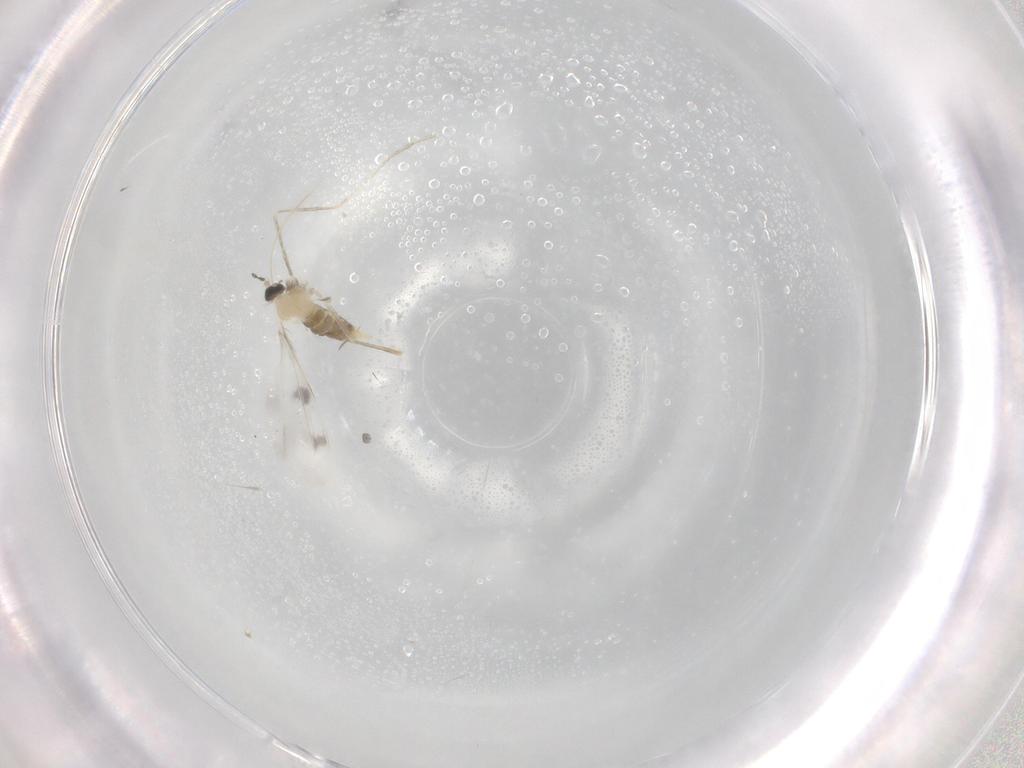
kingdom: Animalia
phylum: Arthropoda
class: Insecta
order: Diptera
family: Cecidomyiidae
